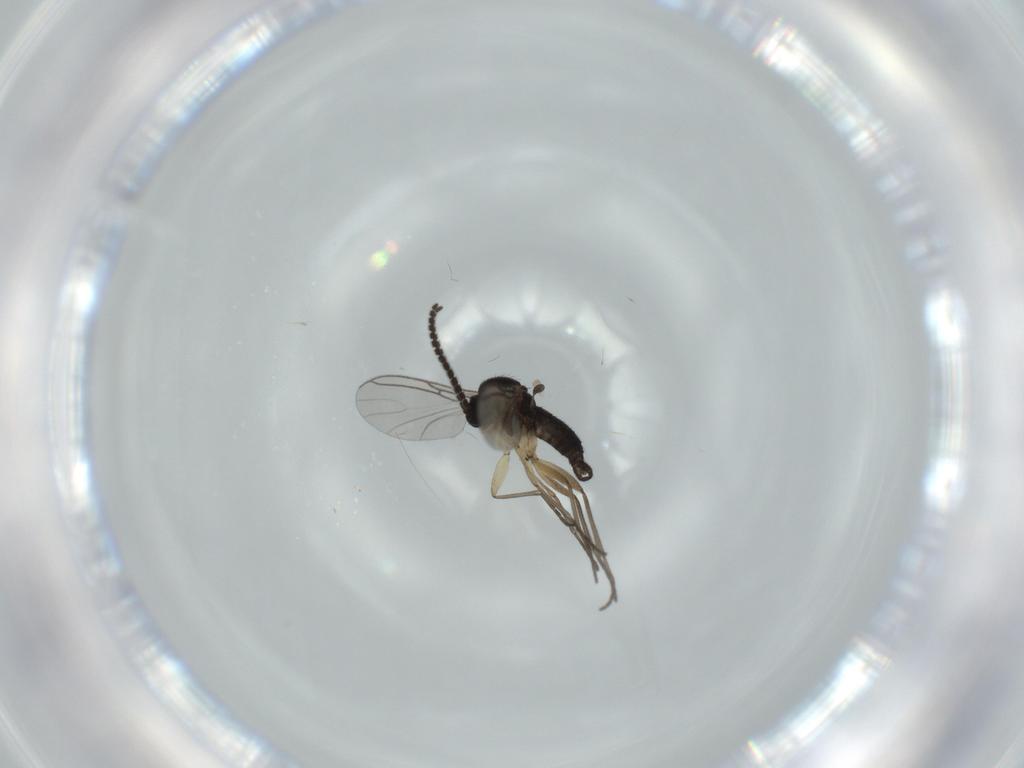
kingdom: Animalia
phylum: Arthropoda
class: Insecta
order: Diptera
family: Sciaridae
